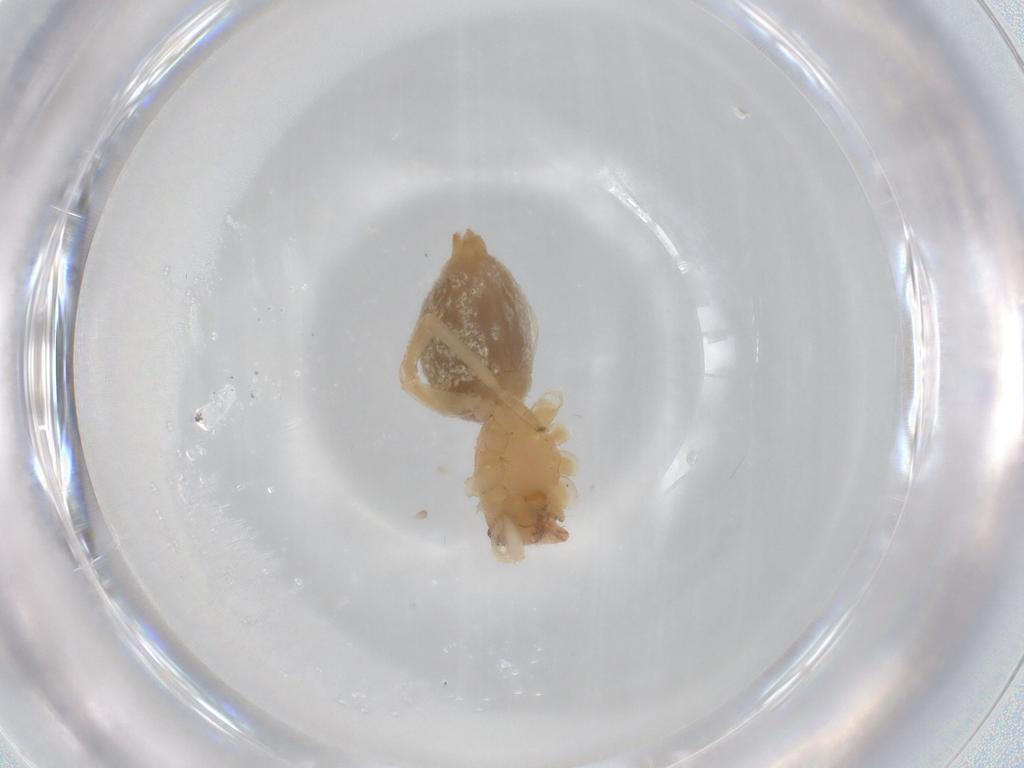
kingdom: Animalia
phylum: Arthropoda
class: Arachnida
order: Araneae
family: Cheiracanthiidae
